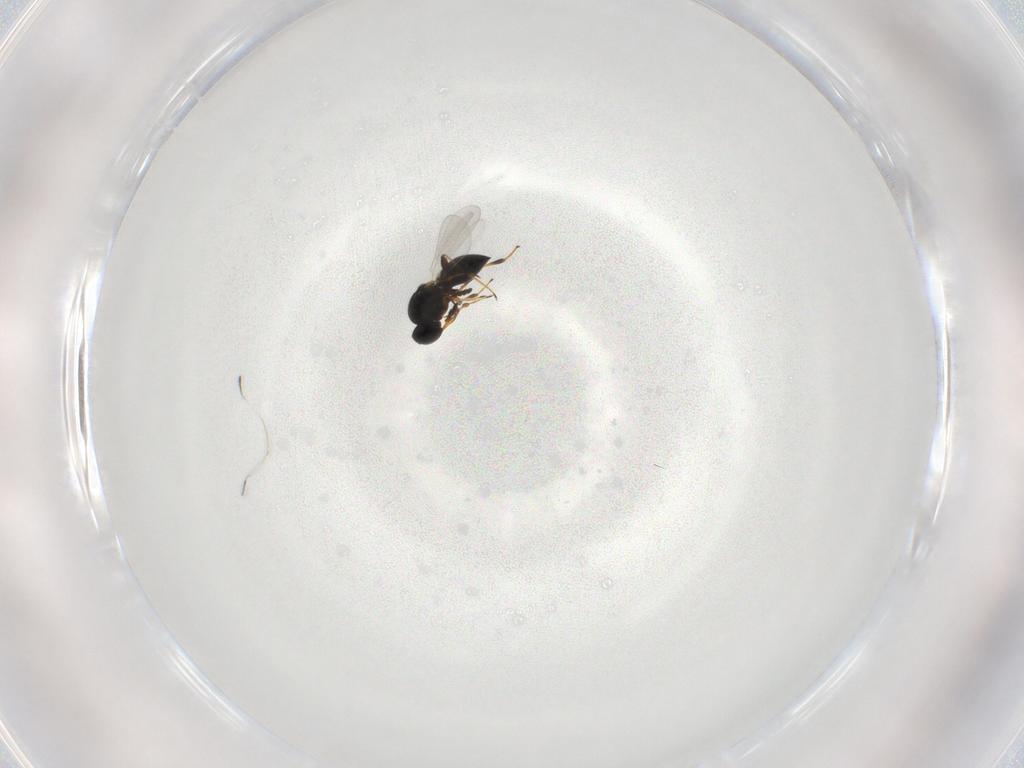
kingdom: Animalia
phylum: Arthropoda
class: Insecta
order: Hymenoptera
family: Platygastridae
